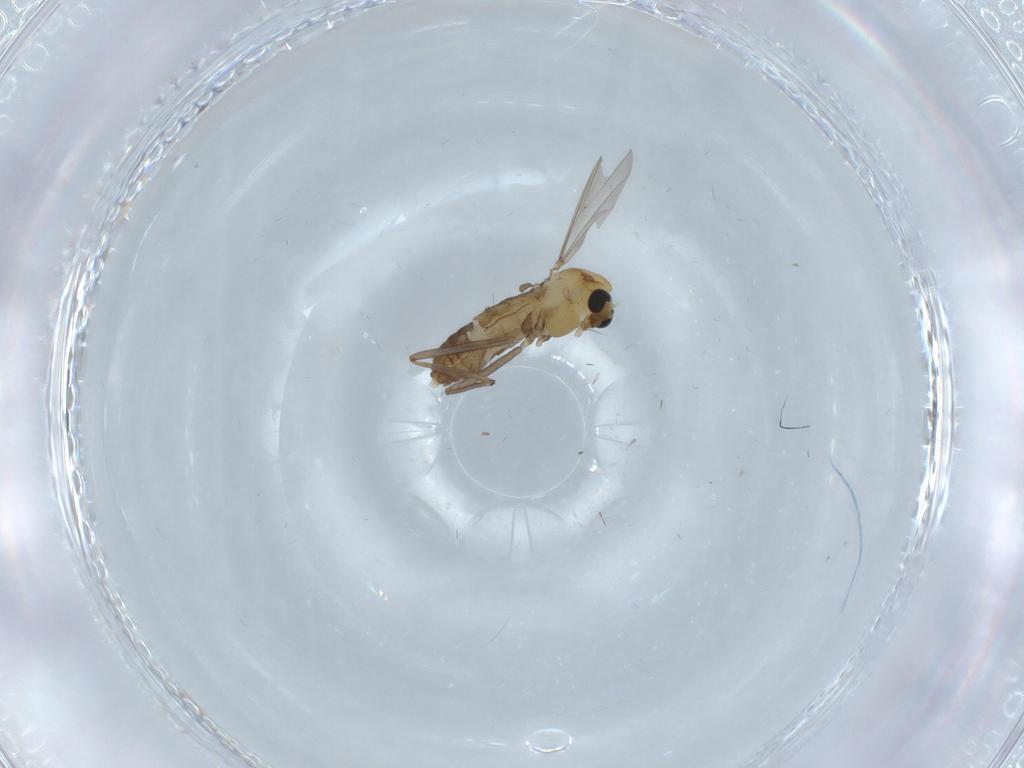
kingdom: Animalia
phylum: Arthropoda
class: Insecta
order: Diptera
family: Chironomidae
